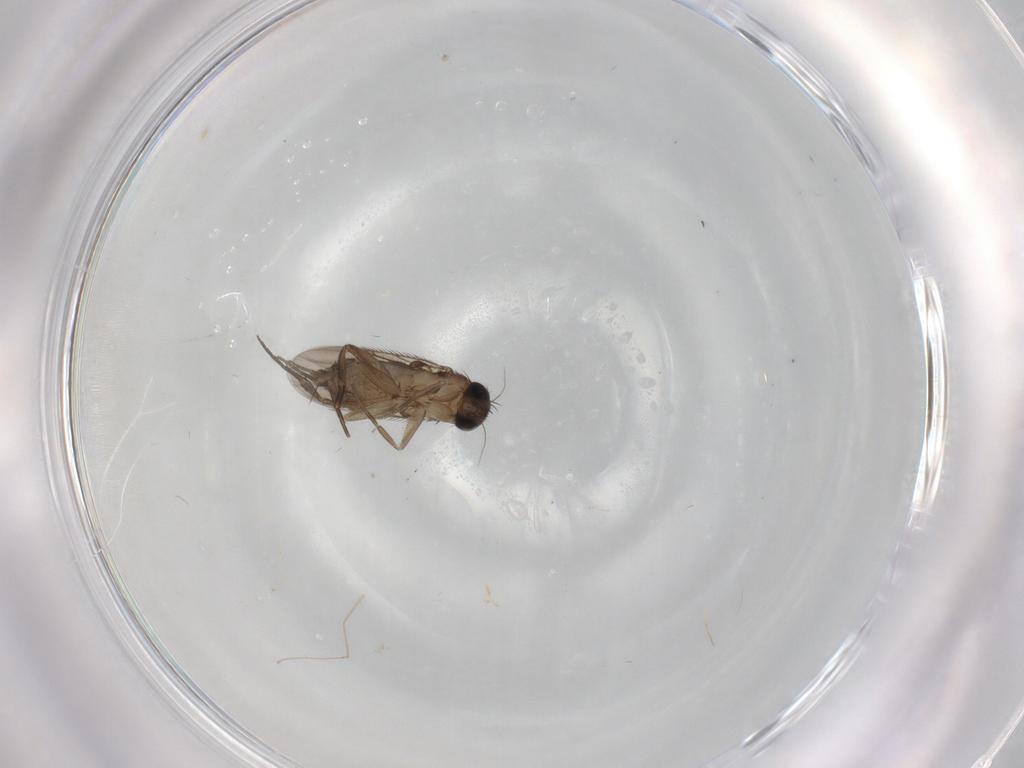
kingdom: Animalia
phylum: Arthropoda
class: Insecta
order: Diptera
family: Phoridae
